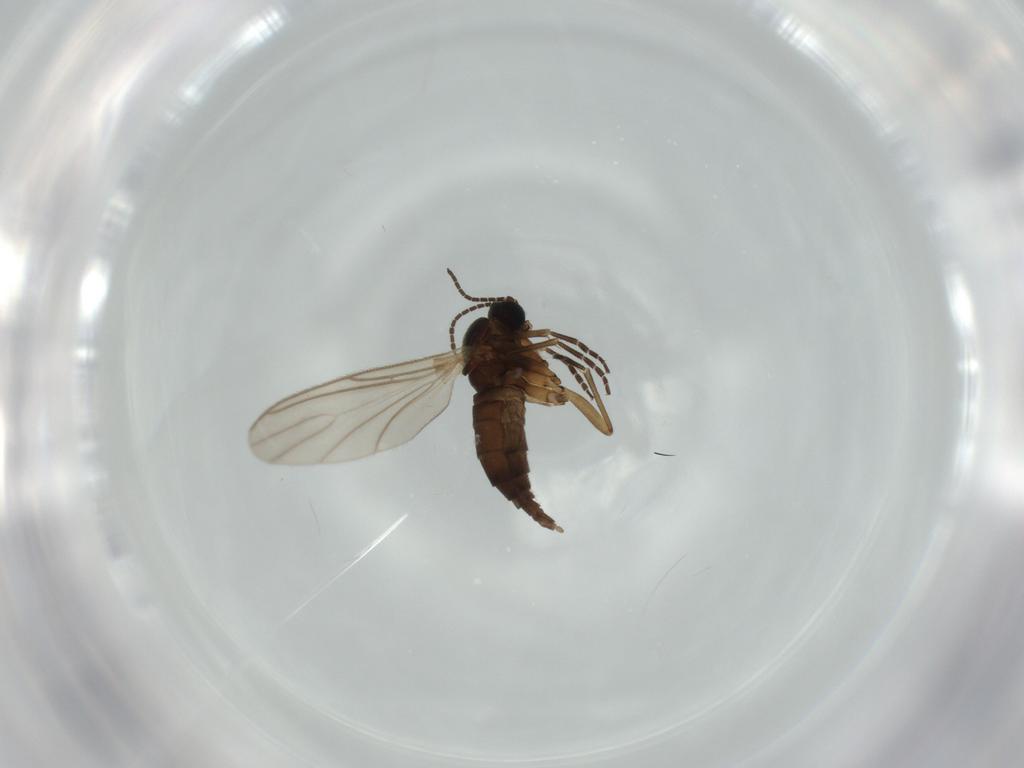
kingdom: Animalia
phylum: Arthropoda
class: Insecta
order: Diptera
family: Sciaridae
